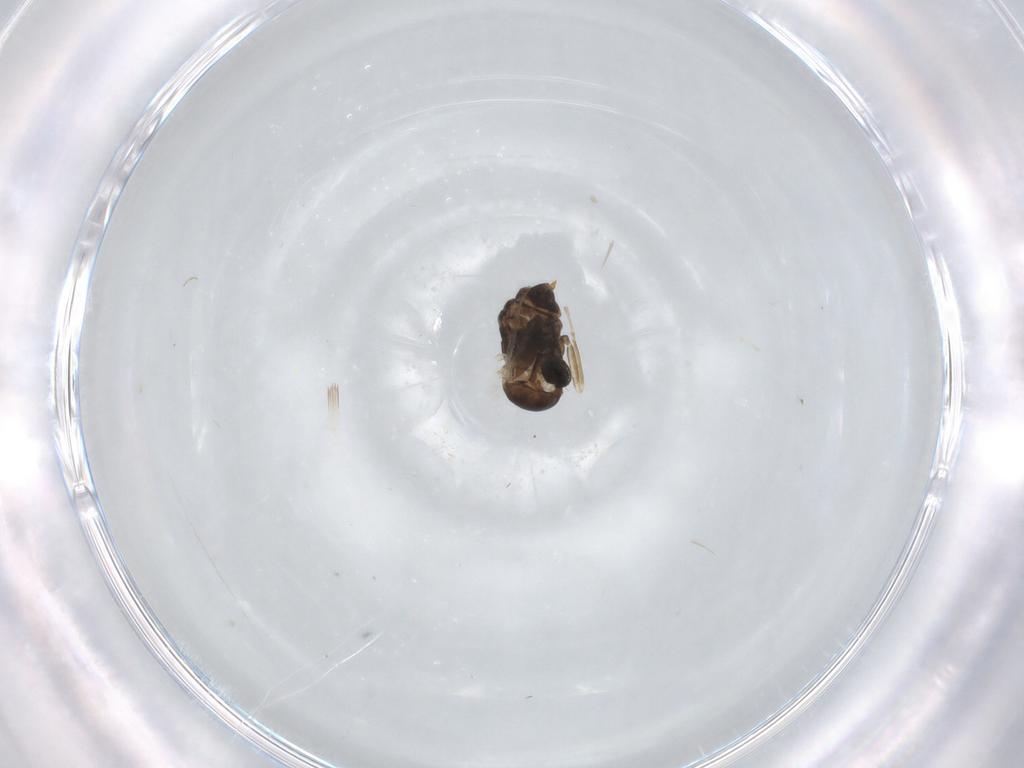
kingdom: Animalia
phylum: Arthropoda
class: Insecta
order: Diptera
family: Cecidomyiidae
